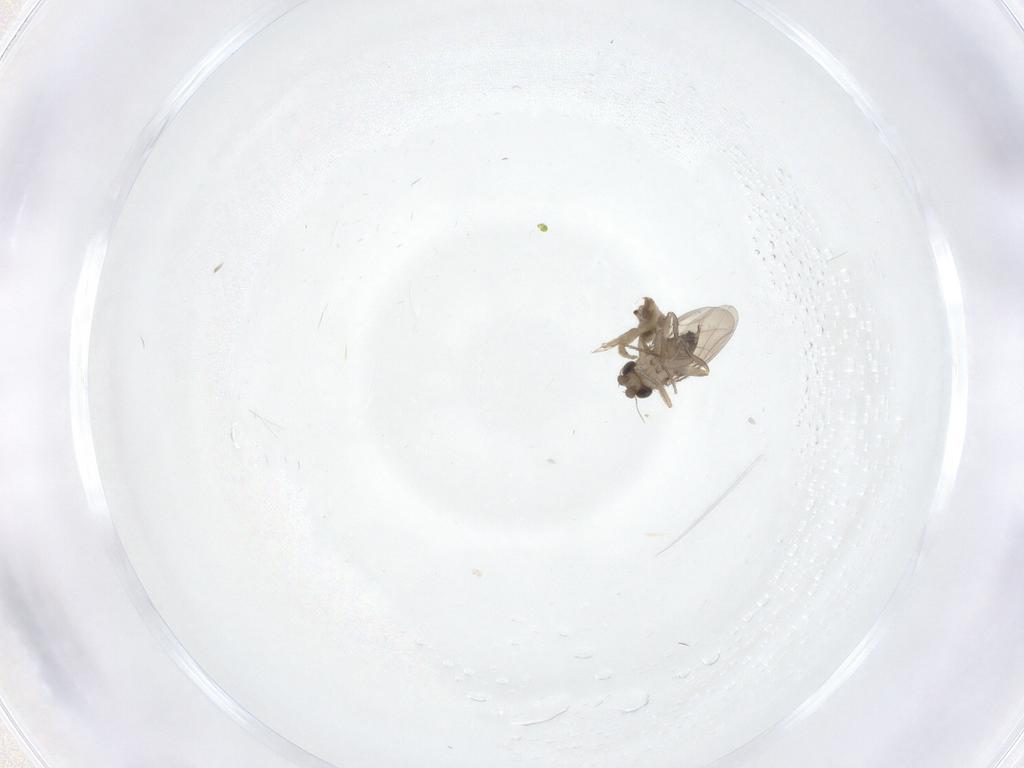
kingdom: Animalia
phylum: Arthropoda
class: Insecta
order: Diptera
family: Phoridae
